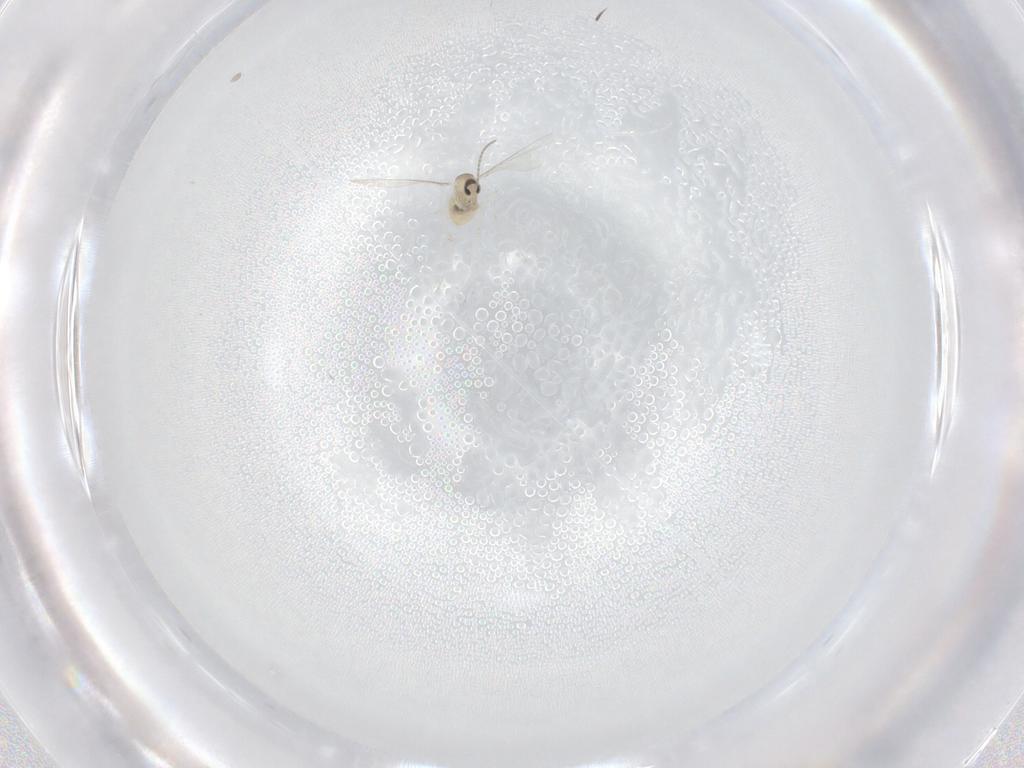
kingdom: Animalia
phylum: Arthropoda
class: Insecta
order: Diptera
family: Cecidomyiidae
